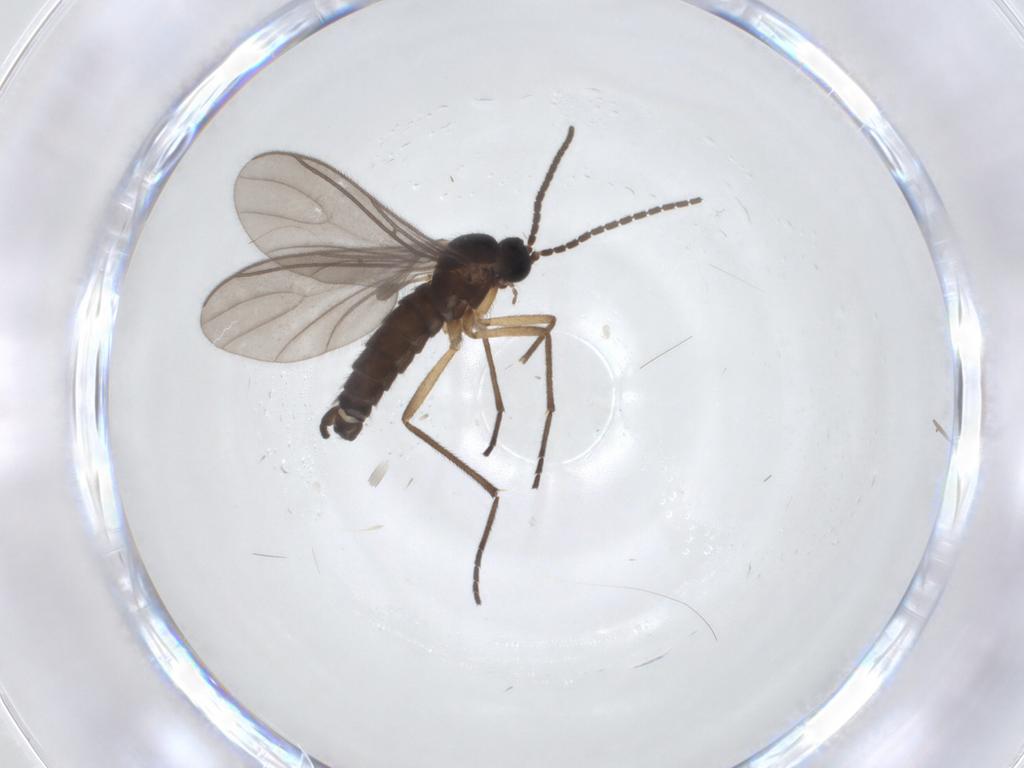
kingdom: Animalia
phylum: Arthropoda
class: Insecta
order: Diptera
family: Sciaridae
